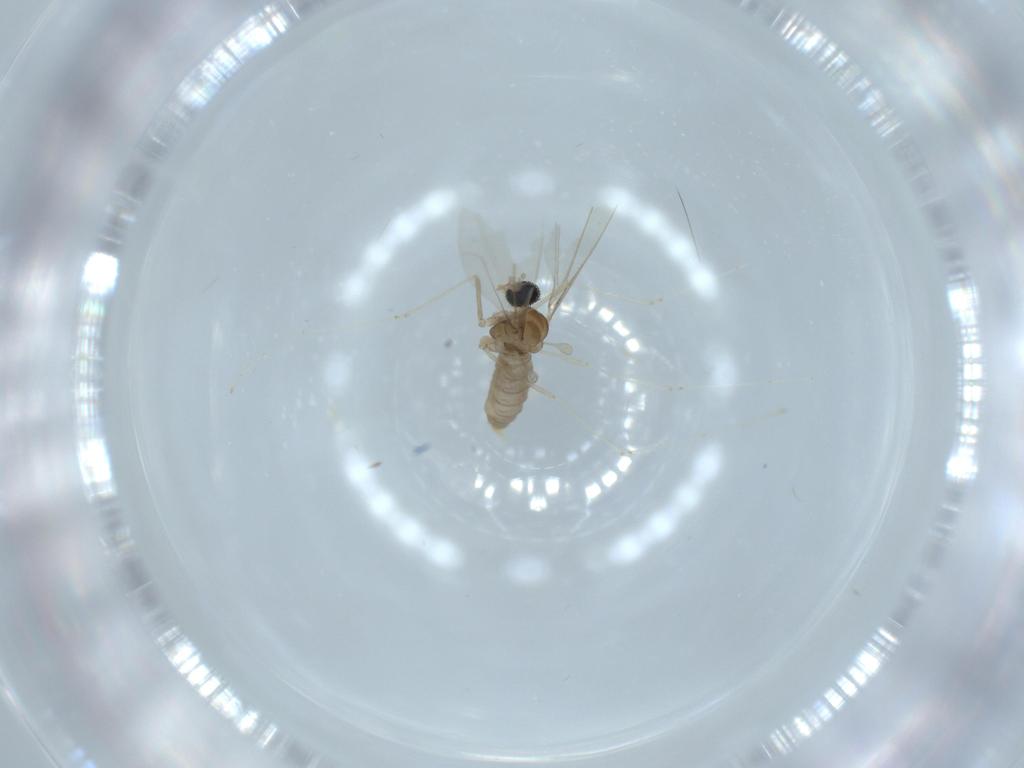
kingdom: Animalia
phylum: Arthropoda
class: Insecta
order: Diptera
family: Cecidomyiidae
